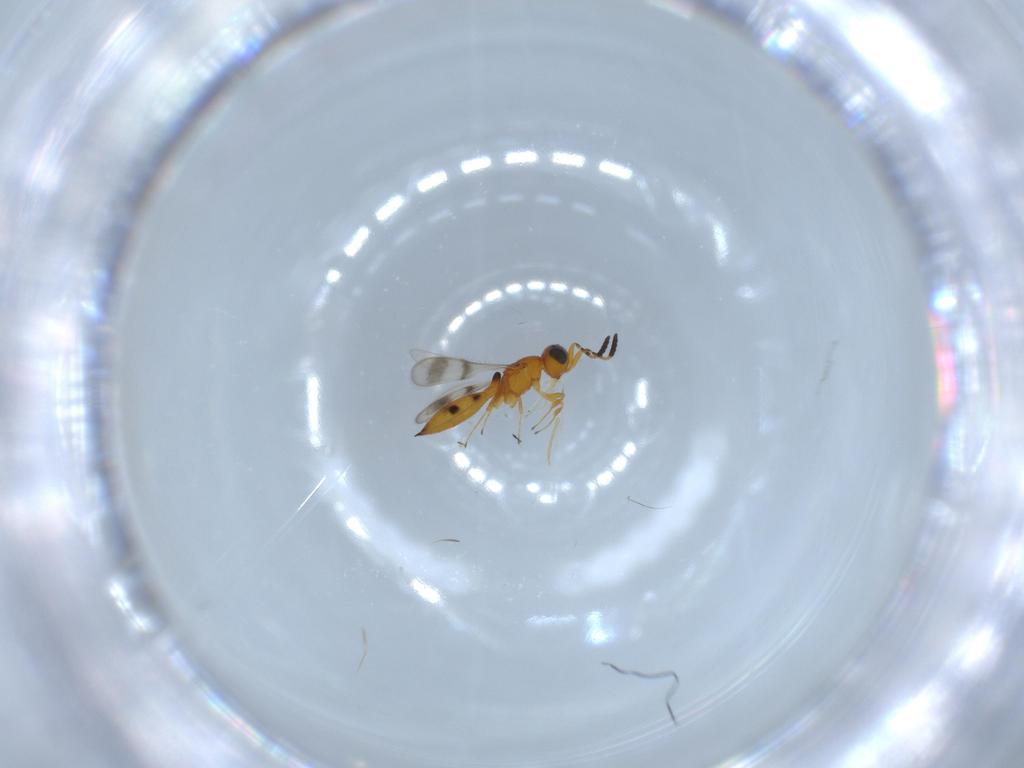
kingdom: Animalia
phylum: Arthropoda
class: Insecta
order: Hymenoptera
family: Scelionidae
